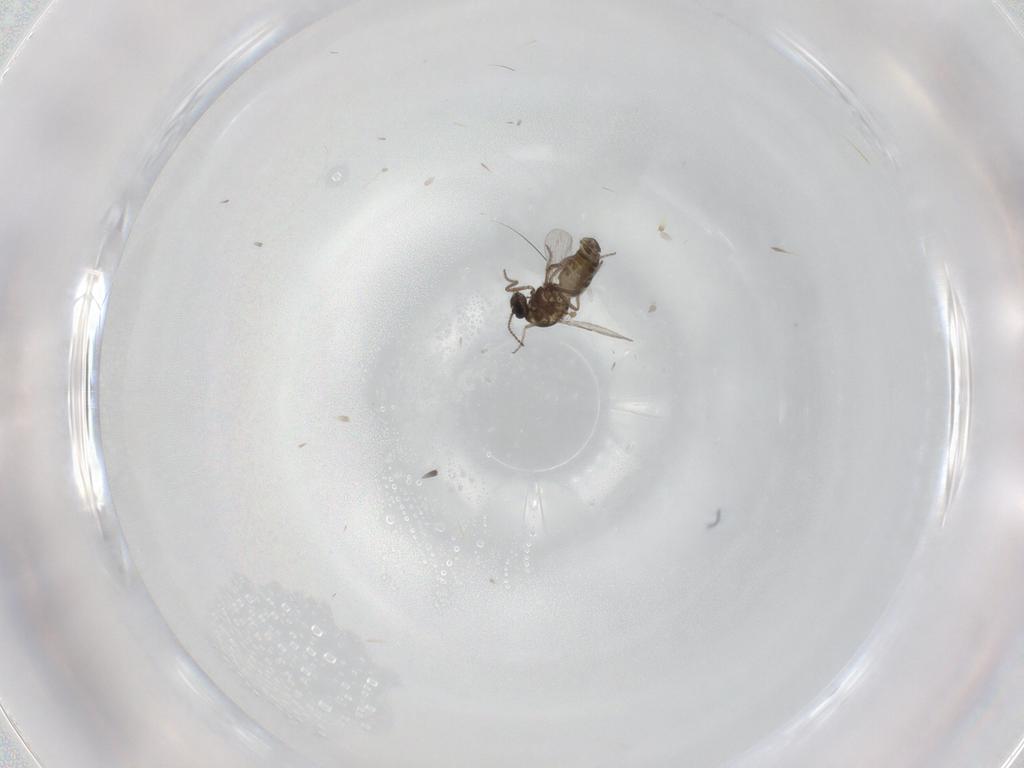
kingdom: Animalia
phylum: Arthropoda
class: Insecta
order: Diptera
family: Ceratopogonidae
